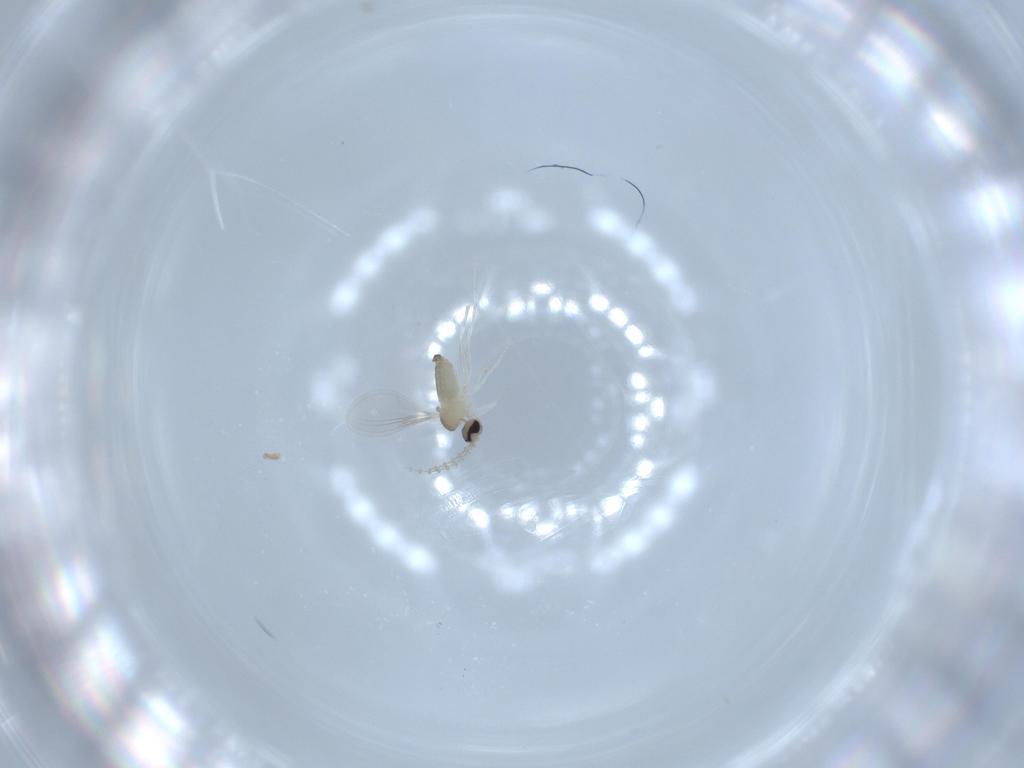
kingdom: Animalia
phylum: Arthropoda
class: Insecta
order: Diptera
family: Cecidomyiidae
